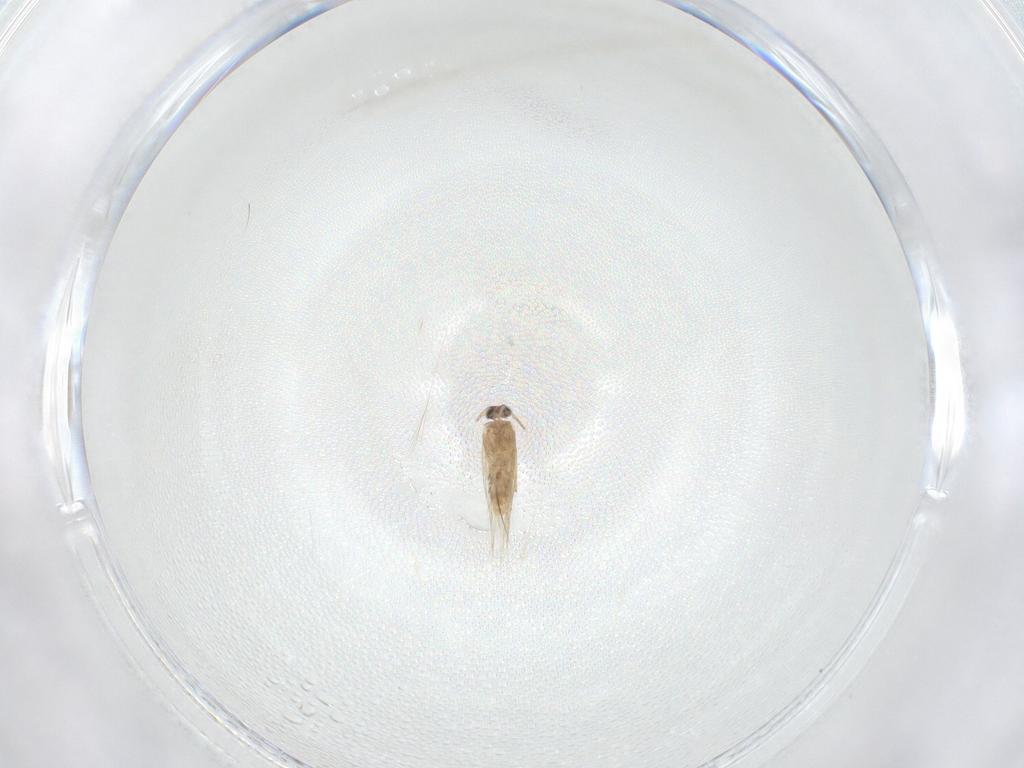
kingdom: Animalia
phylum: Arthropoda
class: Insecta
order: Lepidoptera
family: Nepticulidae
